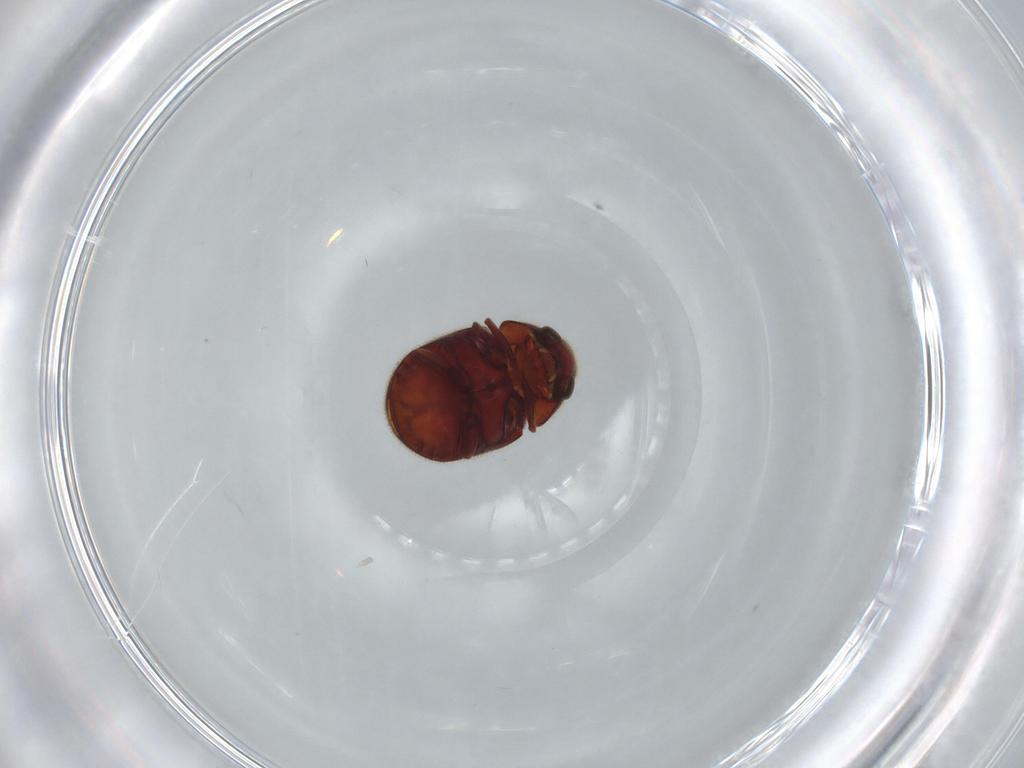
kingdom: Animalia
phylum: Arthropoda
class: Insecta
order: Coleoptera
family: Ptinidae
